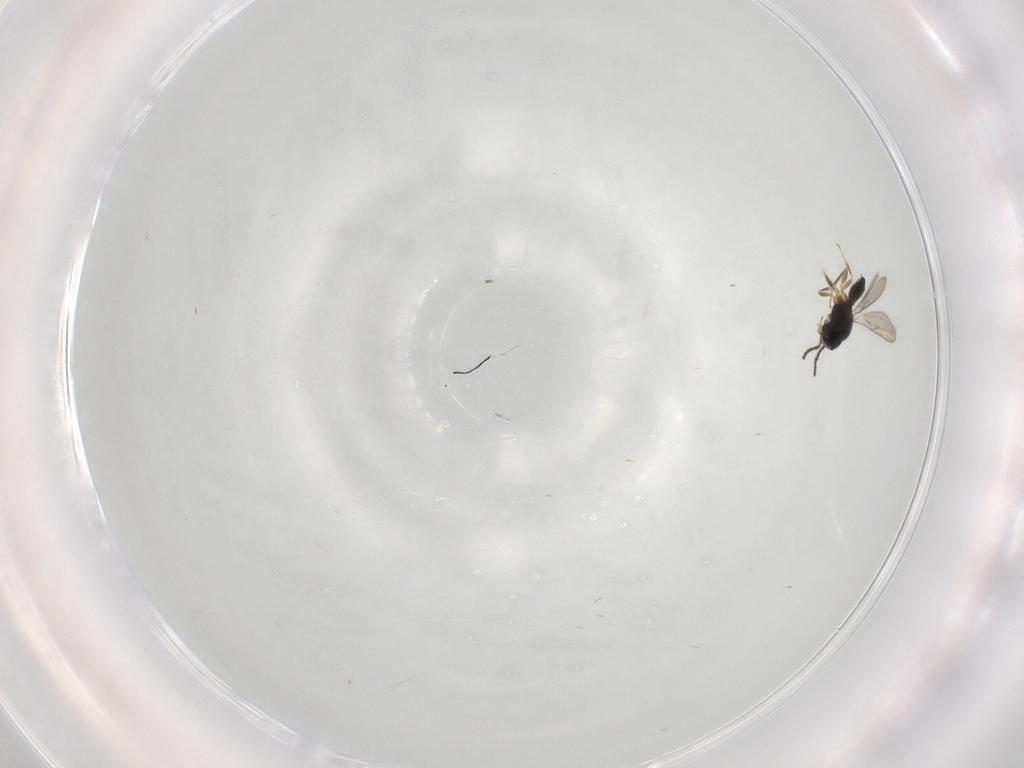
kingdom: Animalia
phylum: Arthropoda
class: Insecta
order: Hymenoptera
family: Scelionidae
